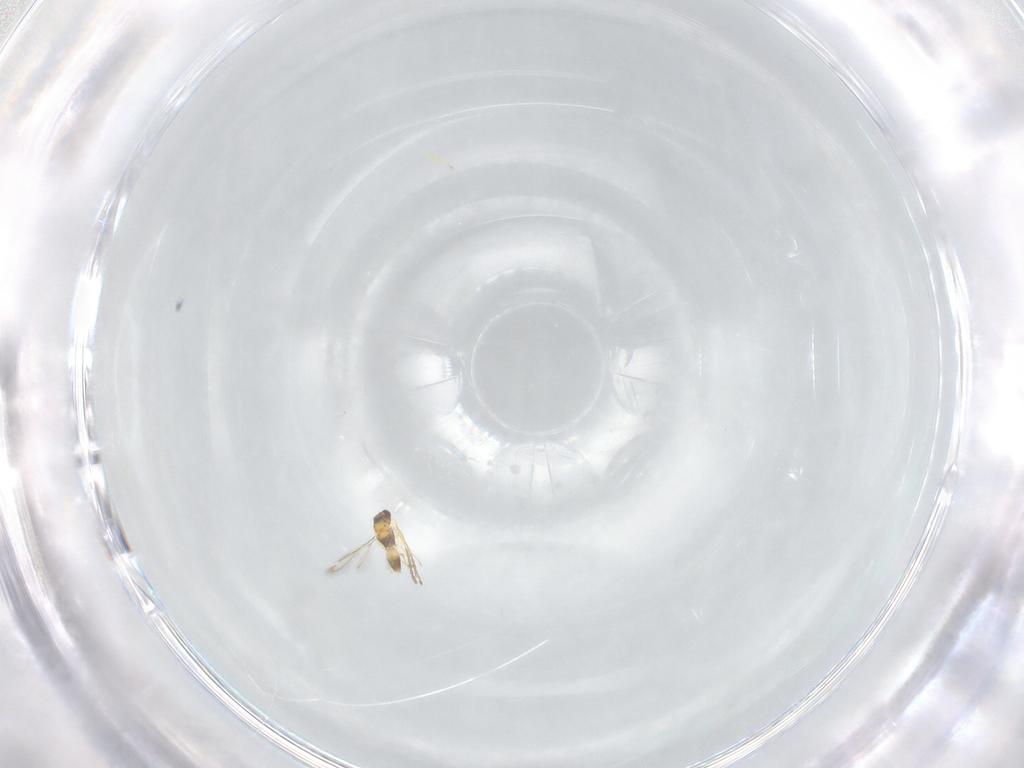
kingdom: Animalia
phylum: Arthropoda
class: Insecta
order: Hymenoptera
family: Mymaridae
